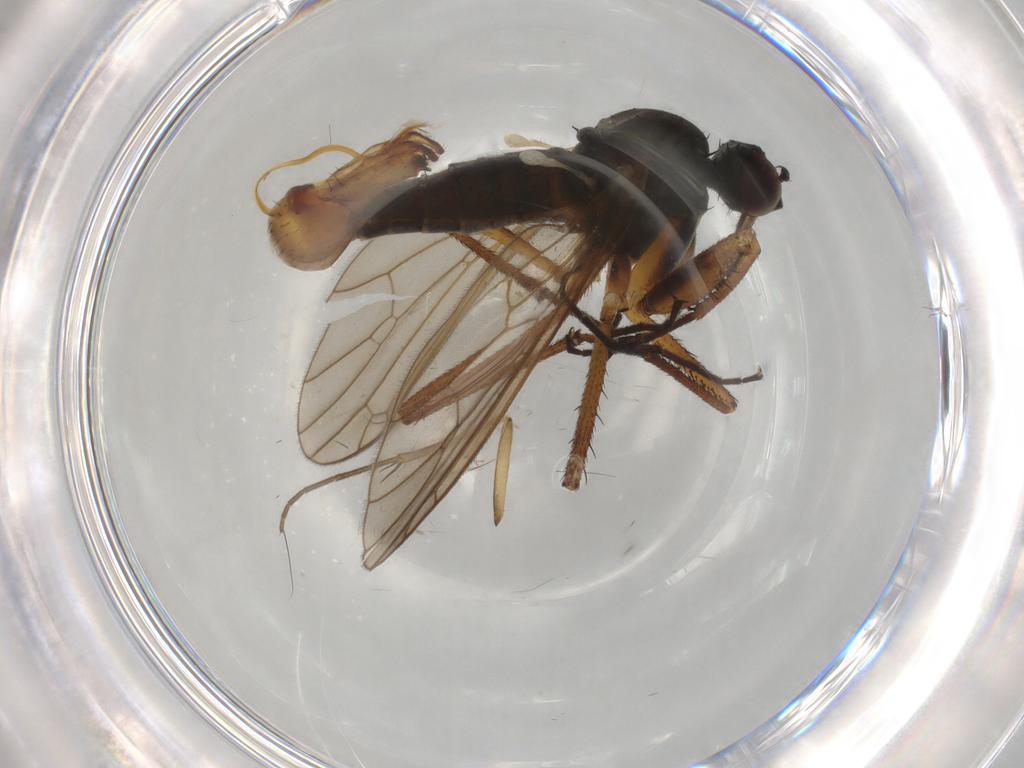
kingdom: Animalia
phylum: Arthropoda
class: Insecta
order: Diptera
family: Empididae
